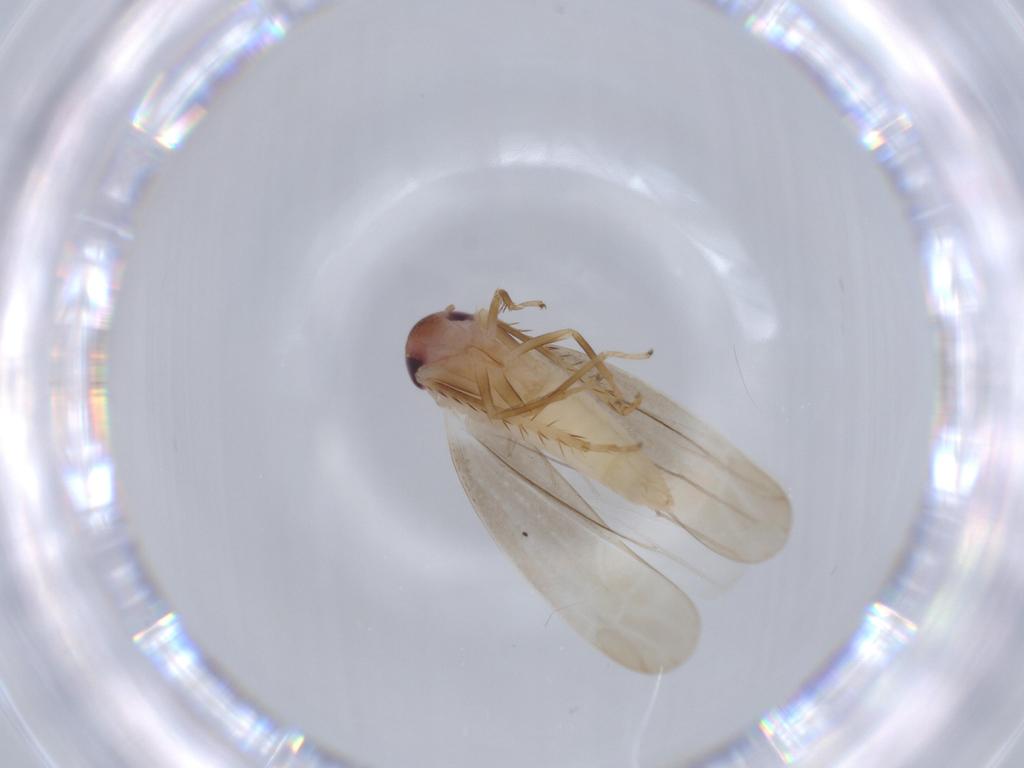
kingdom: Animalia
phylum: Arthropoda
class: Insecta
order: Hemiptera
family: Cicadellidae
